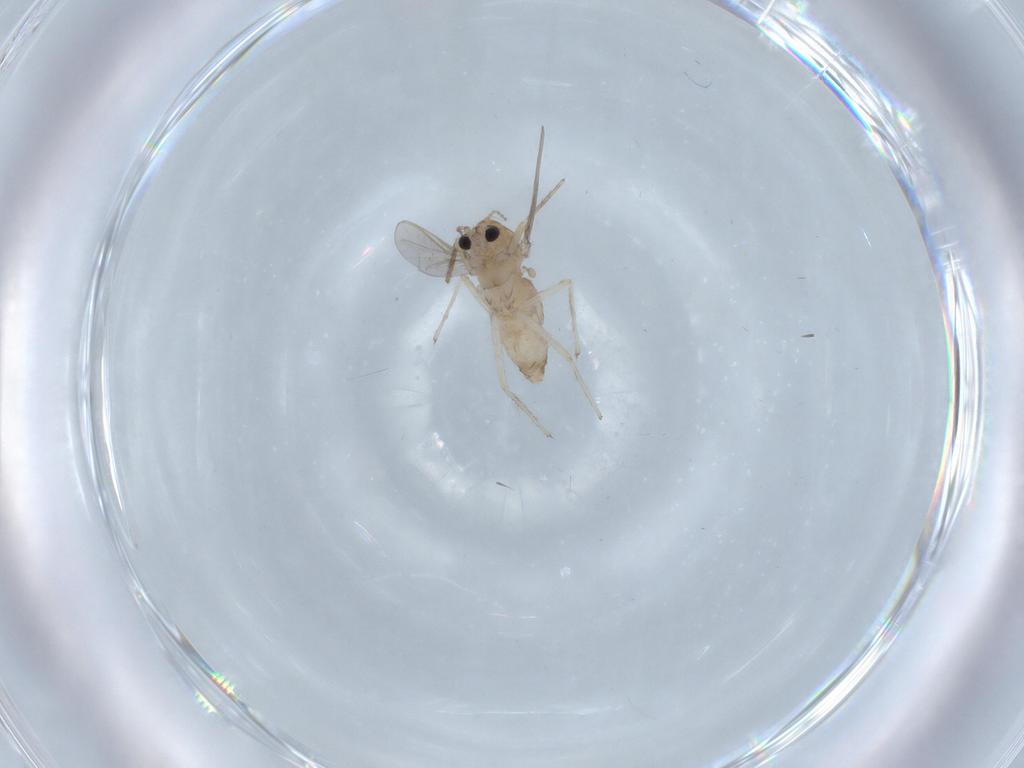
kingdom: Animalia
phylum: Arthropoda
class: Insecta
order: Diptera
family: Chironomidae
